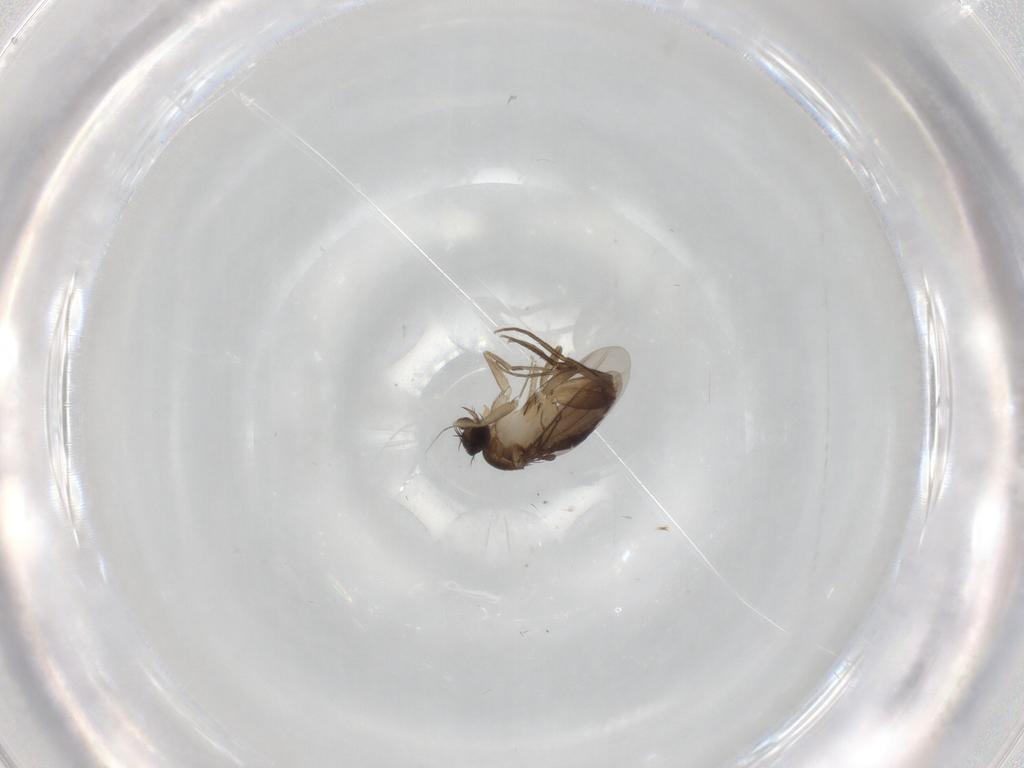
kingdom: Animalia
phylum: Arthropoda
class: Insecta
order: Diptera
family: Phoridae
